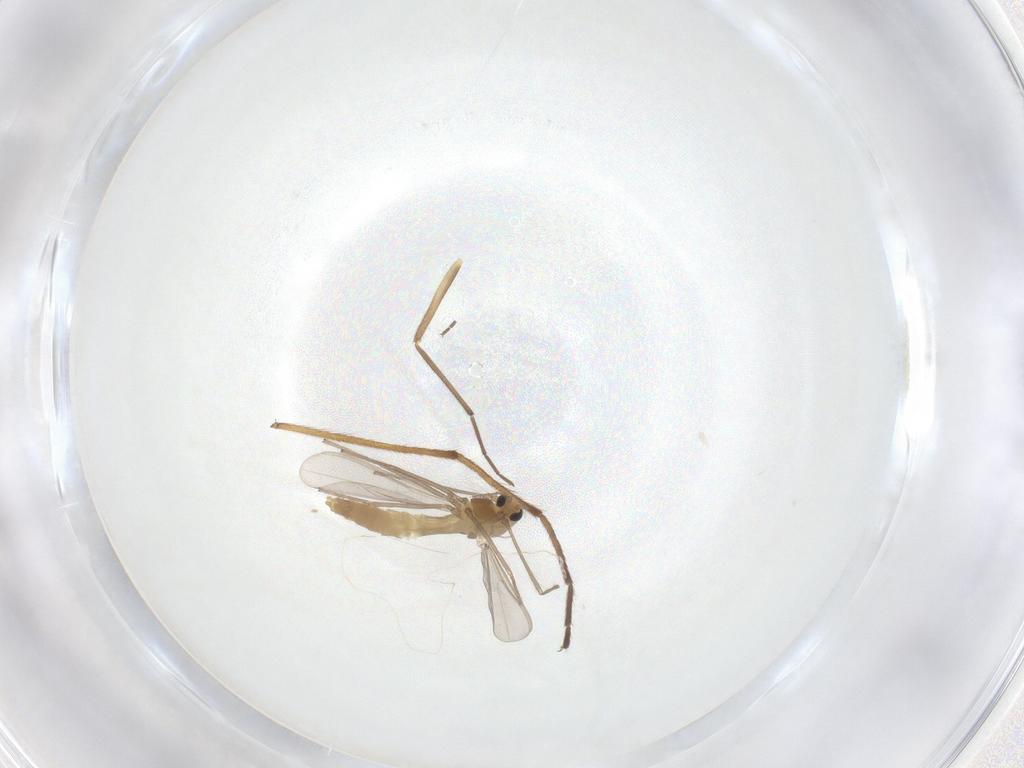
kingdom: Animalia
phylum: Arthropoda
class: Insecta
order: Diptera
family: Chironomidae
